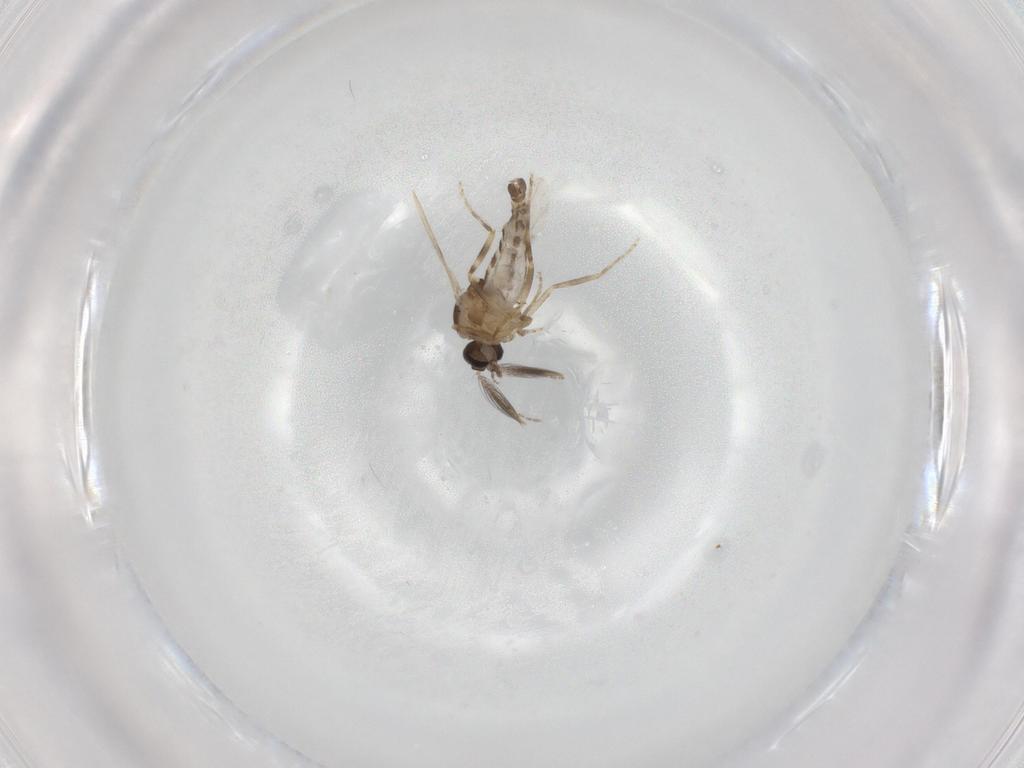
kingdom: Animalia
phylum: Arthropoda
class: Insecta
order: Diptera
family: Ceratopogonidae
